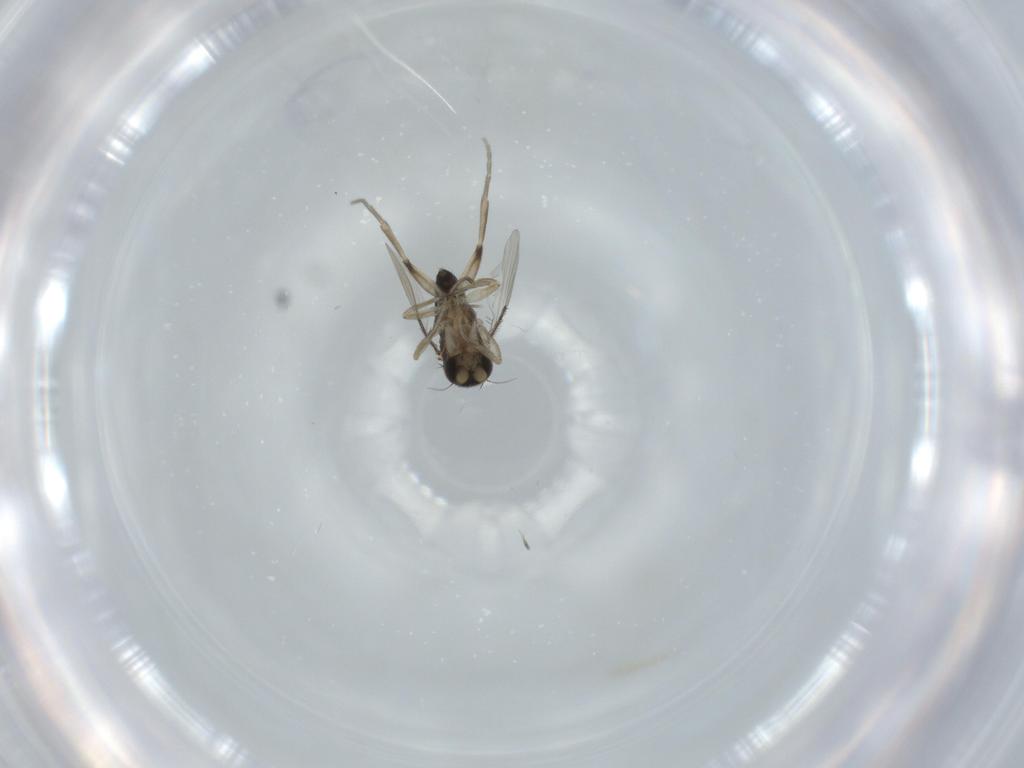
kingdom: Animalia
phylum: Arthropoda
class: Insecta
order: Diptera
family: Phoridae
